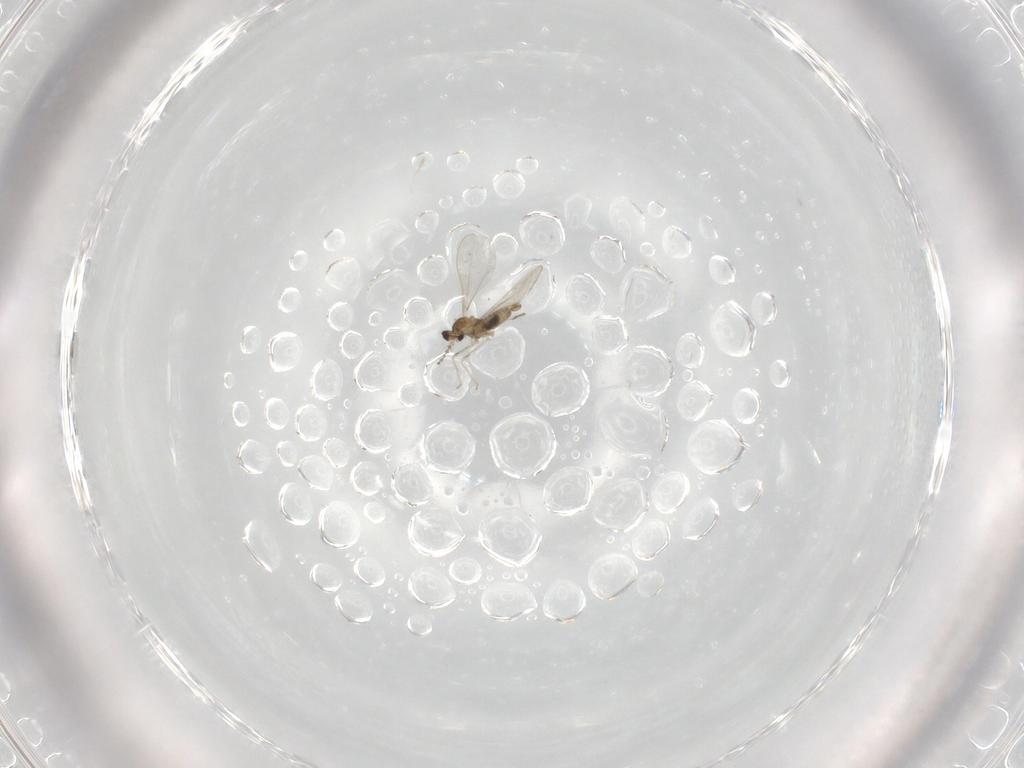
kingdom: Animalia
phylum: Arthropoda
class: Insecta
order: Diptera
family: Cecidomyiidae
